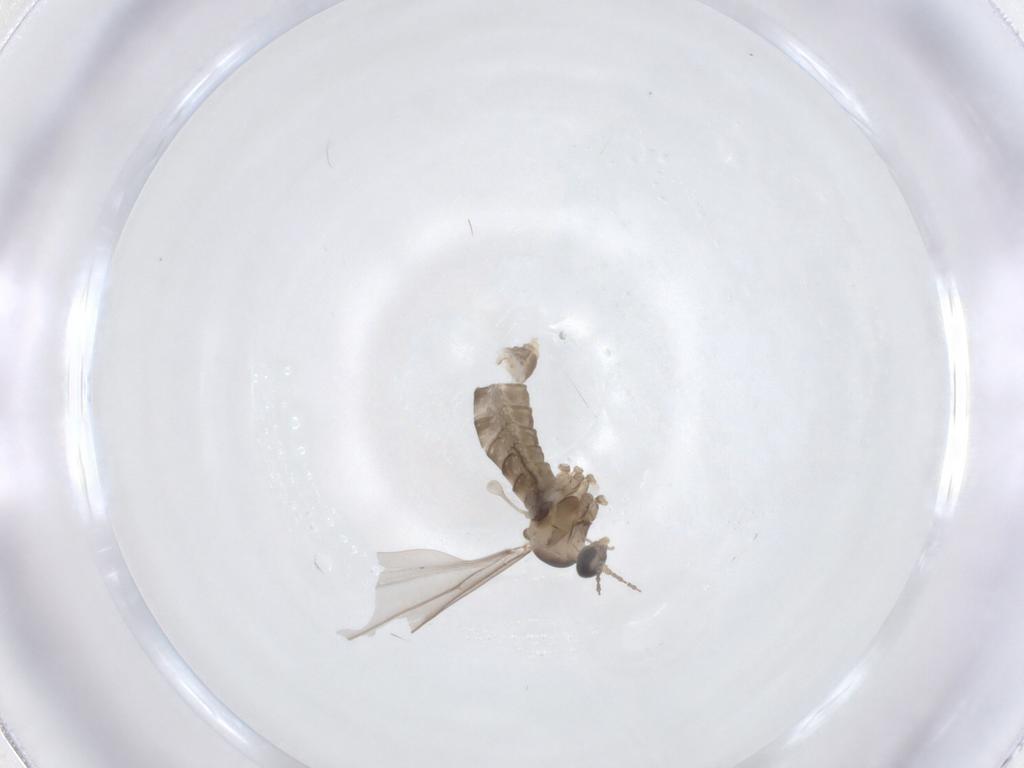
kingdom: Animalia
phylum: Arthropoda
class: Insecta
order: Diptera
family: Cecidomyiidae
